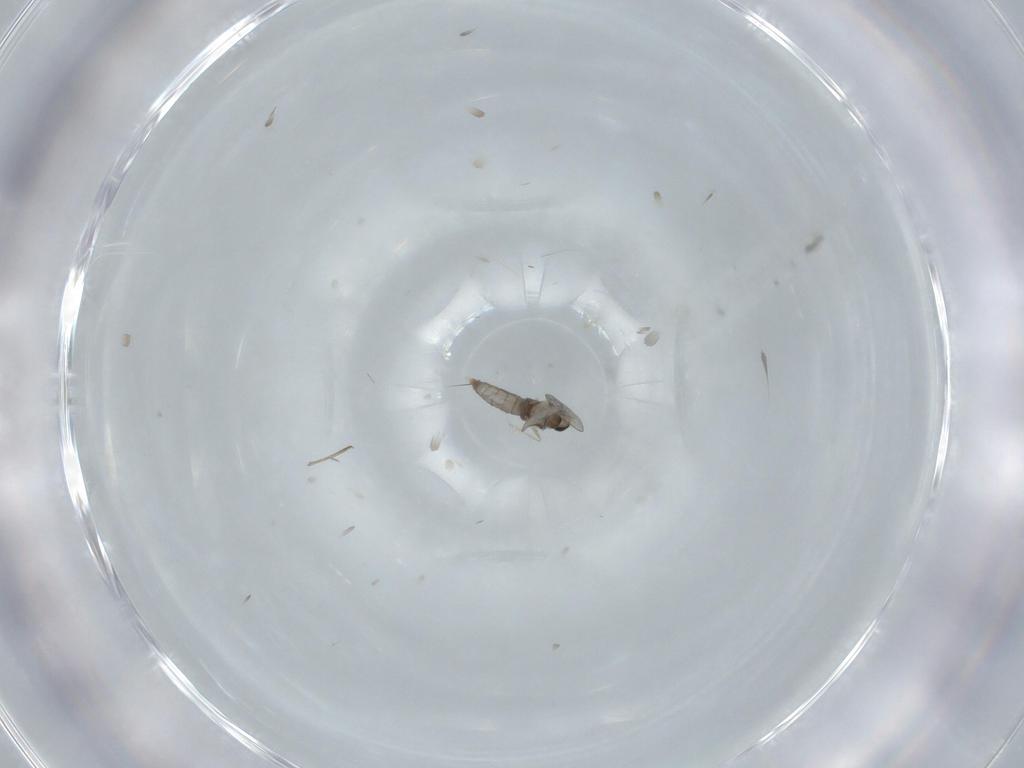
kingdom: Animalia
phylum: Arthropoda
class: Insecta
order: Diptera
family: Cecidomyiidae
